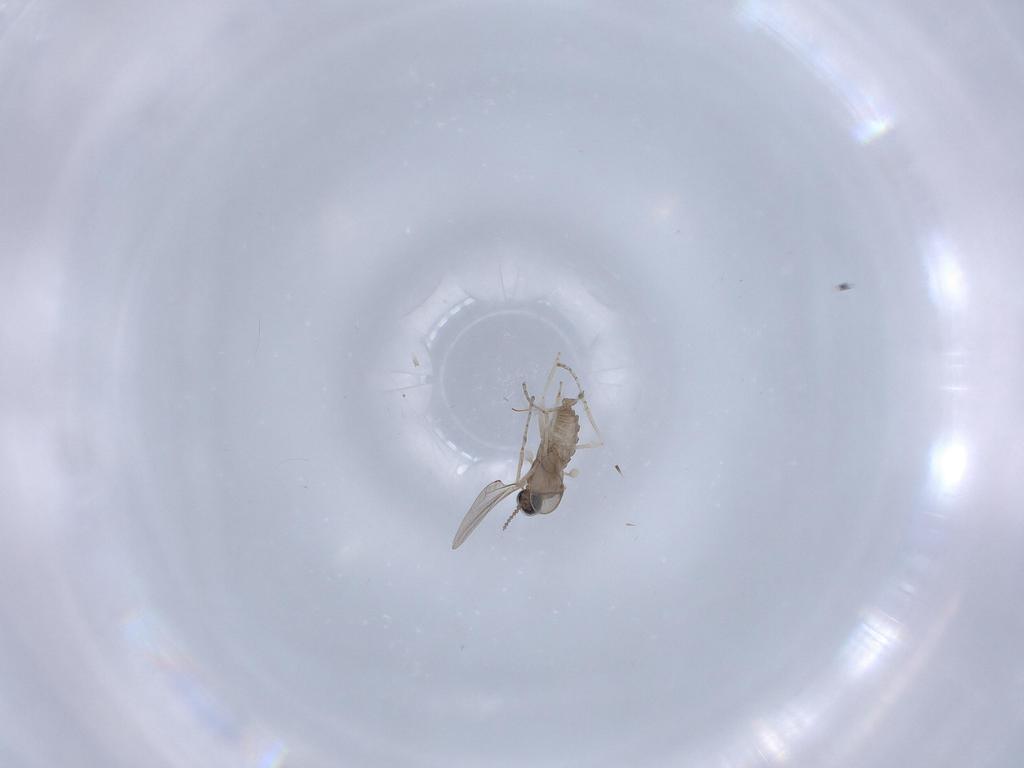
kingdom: Animalia
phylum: Arthropoda
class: Insecta
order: Diptera
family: Cecidomyiidae
